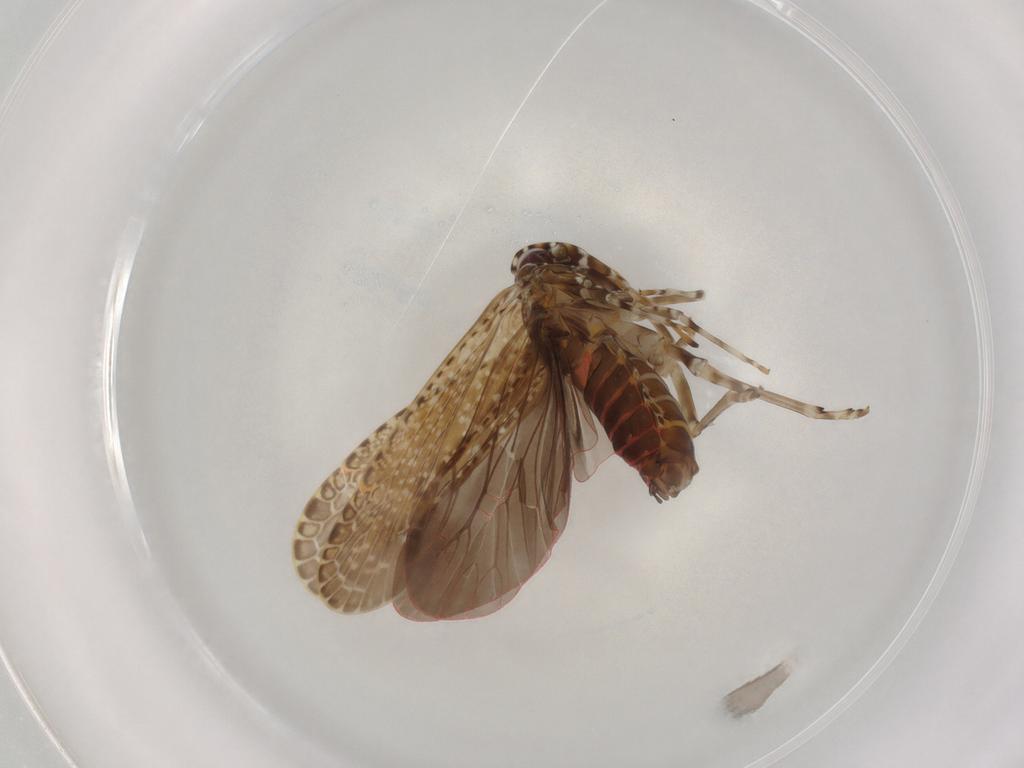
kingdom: Animalia
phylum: Arthropoda
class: Insecta
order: Hemiptera
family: Achilidae
